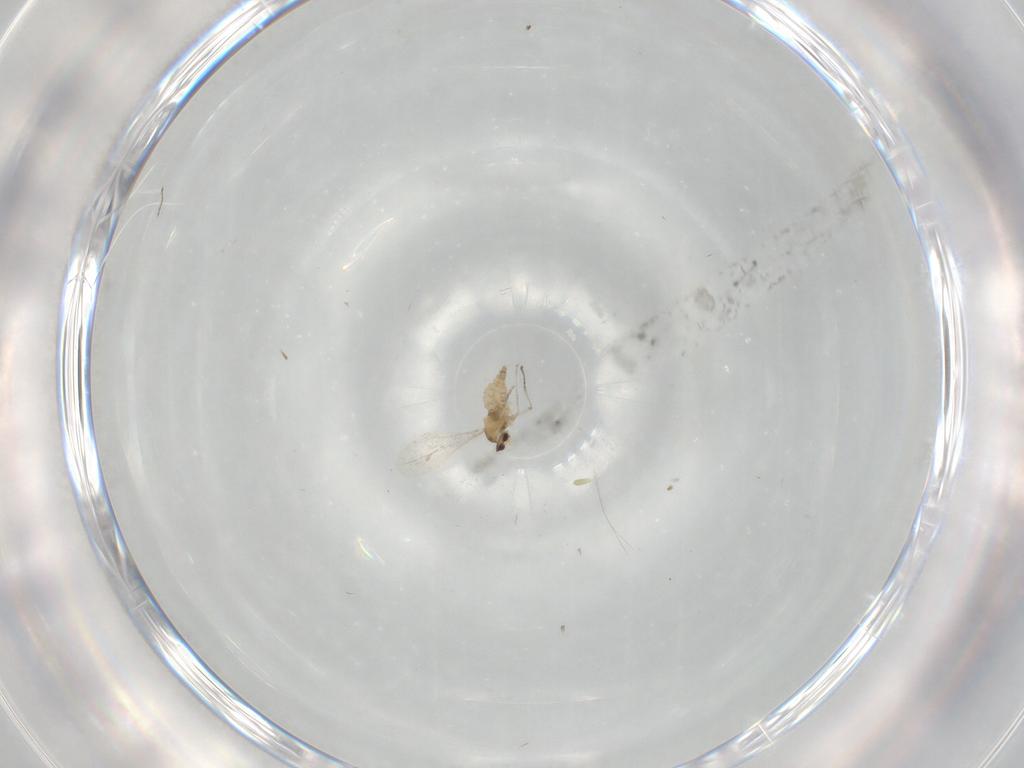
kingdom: Animalia
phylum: Arthropoda
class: Insecta
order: Diptera
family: Cecidomyiidae
